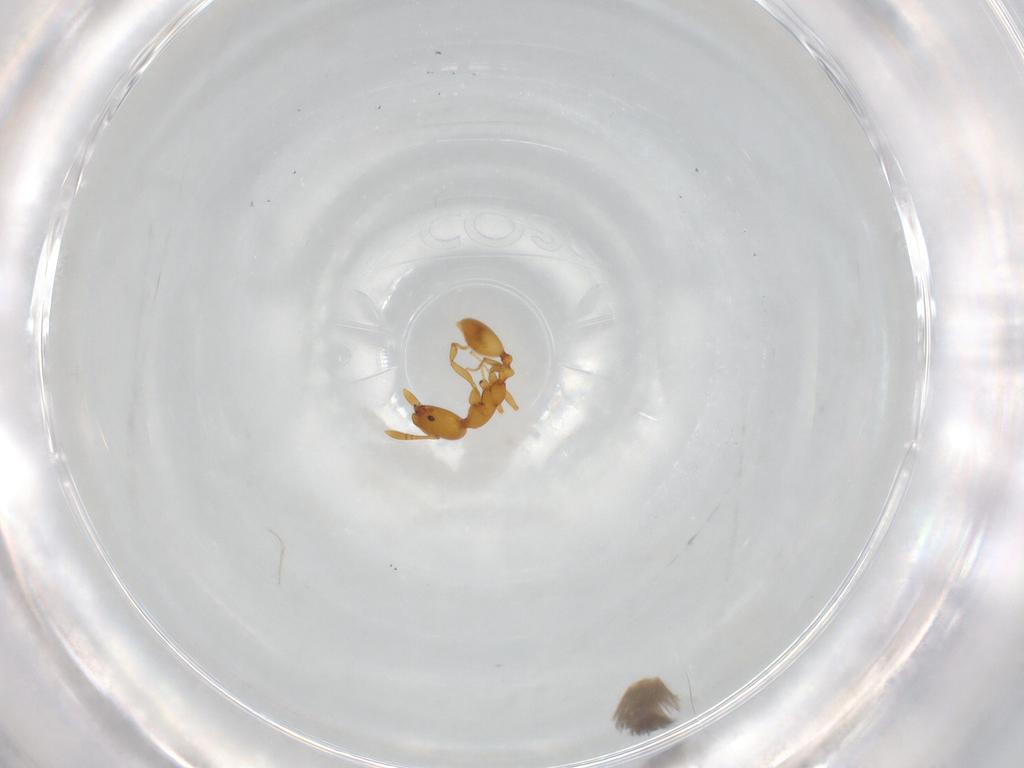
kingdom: Animalia
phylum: Arthropoda
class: Insecta
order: Hymenoptera
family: Formicidae
